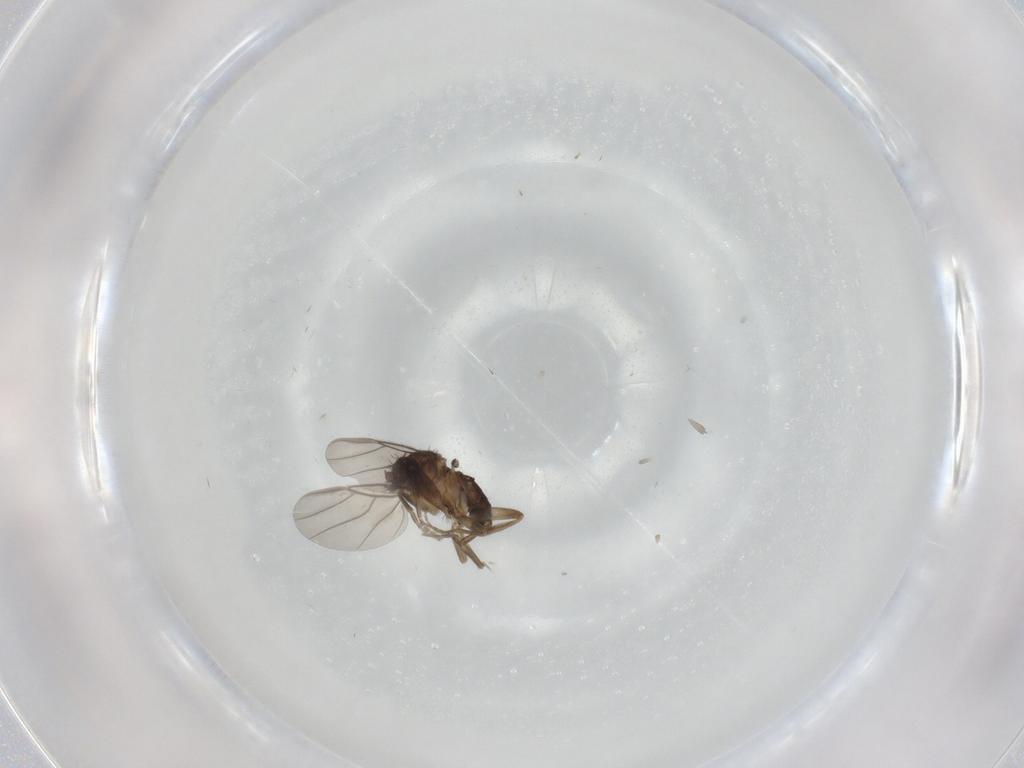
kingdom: Animalia
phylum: Arthropoda
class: Insecta
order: Diptera
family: Phoridae
